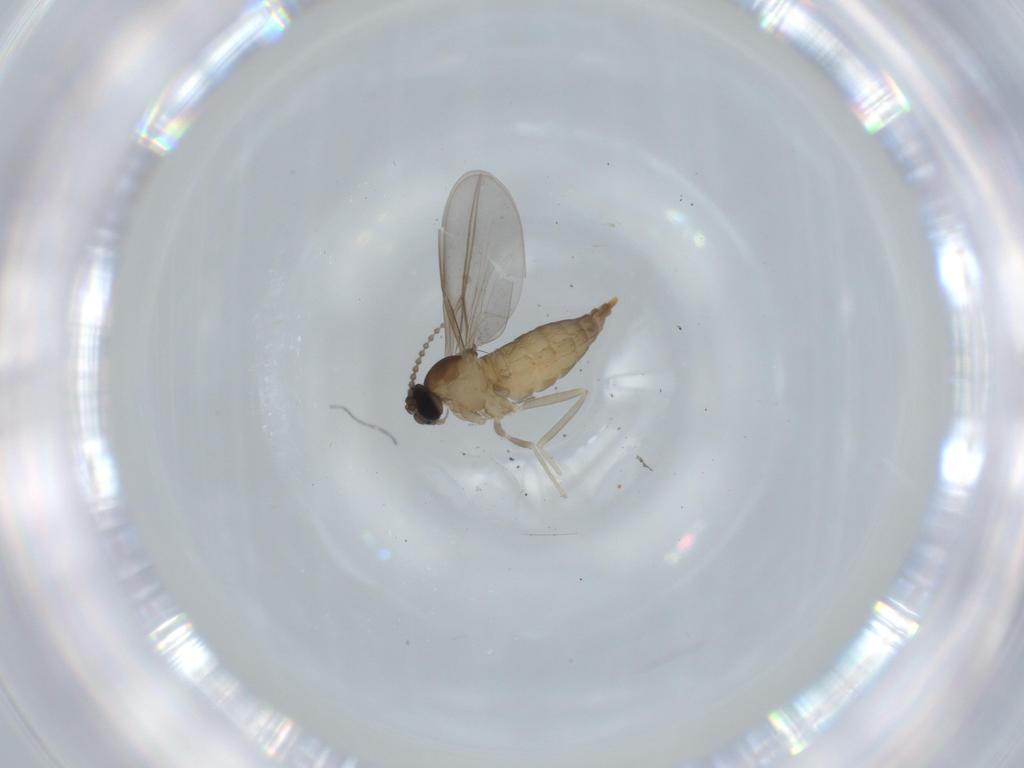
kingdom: Animalia
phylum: Arthropoda
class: Insecta
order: Diptera
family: Cecidomyiidae
